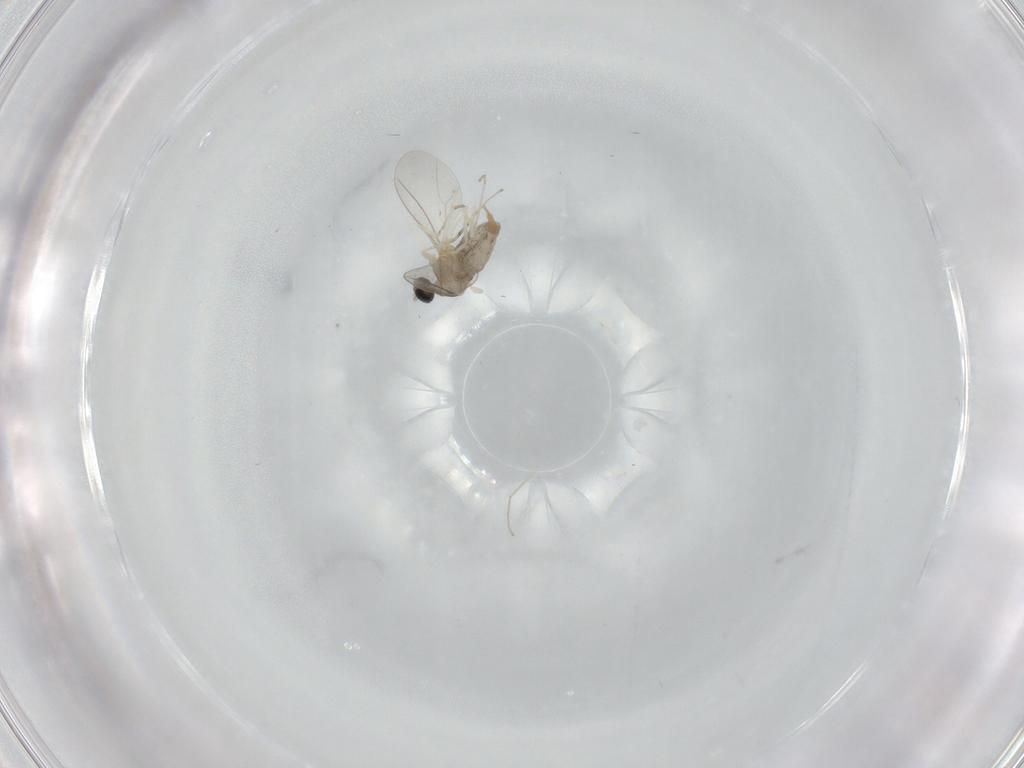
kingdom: Animalia
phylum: Arthropoda
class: Insecta
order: Diptera
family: Cecidomyiidae
